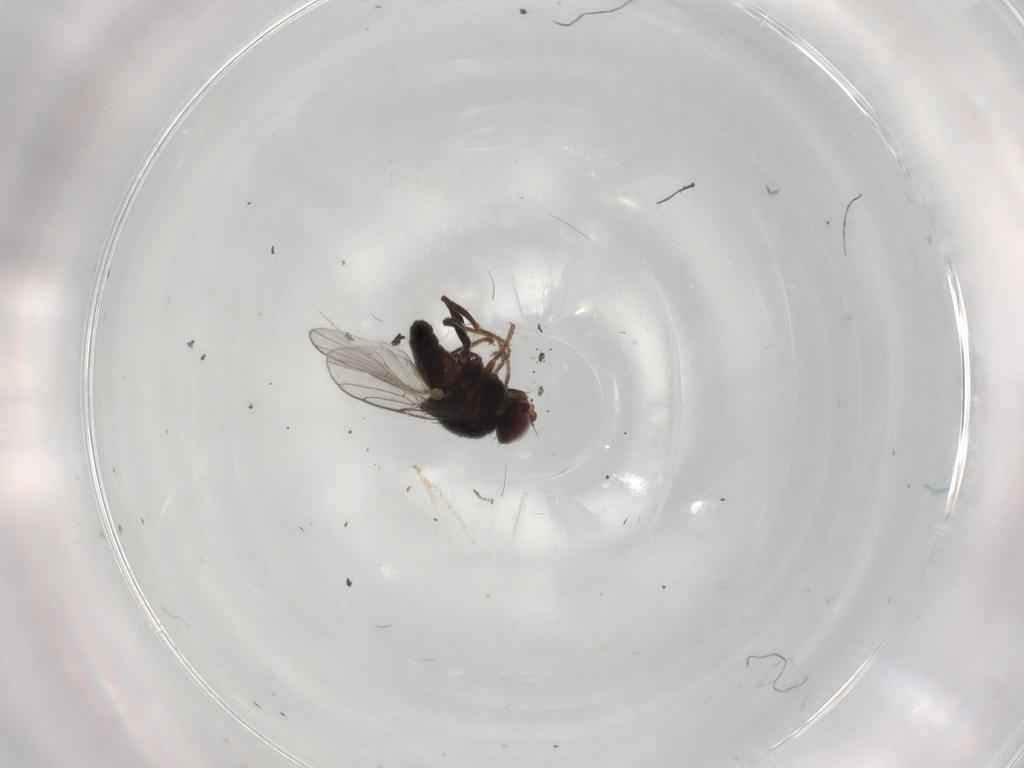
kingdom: Animalia
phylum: Arthropoda
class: Insecta
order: Diptera
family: Chloropidae
